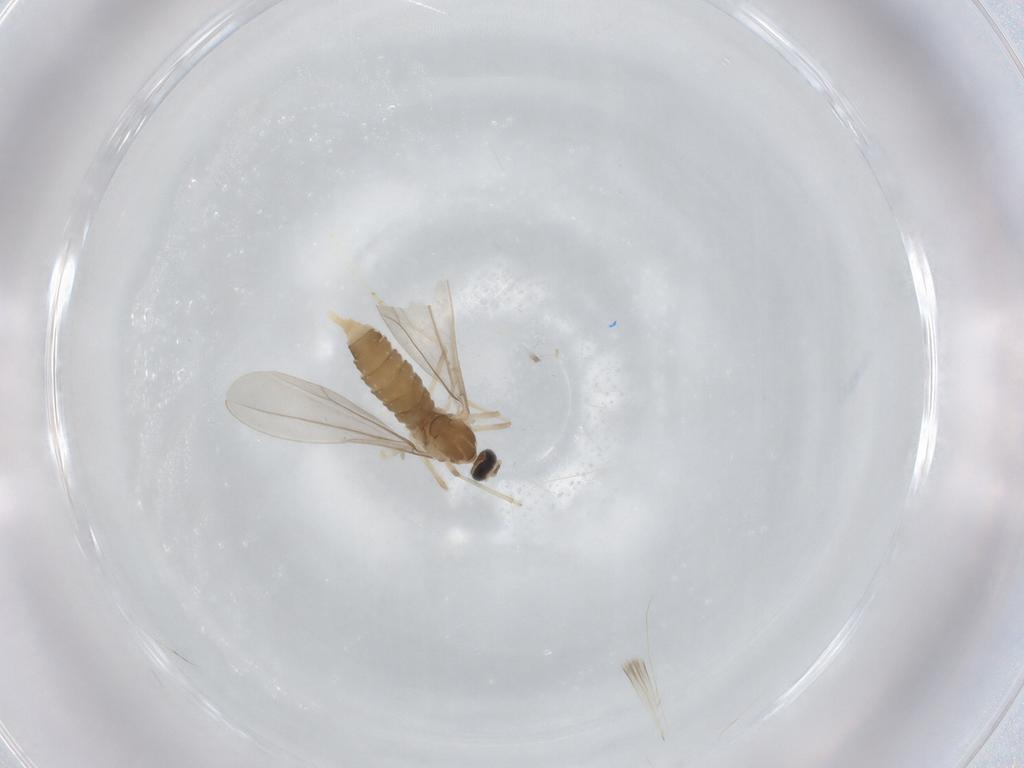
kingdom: Animalia
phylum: Arthropoda
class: Insecta
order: Diptera
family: Cecidomyiidae
